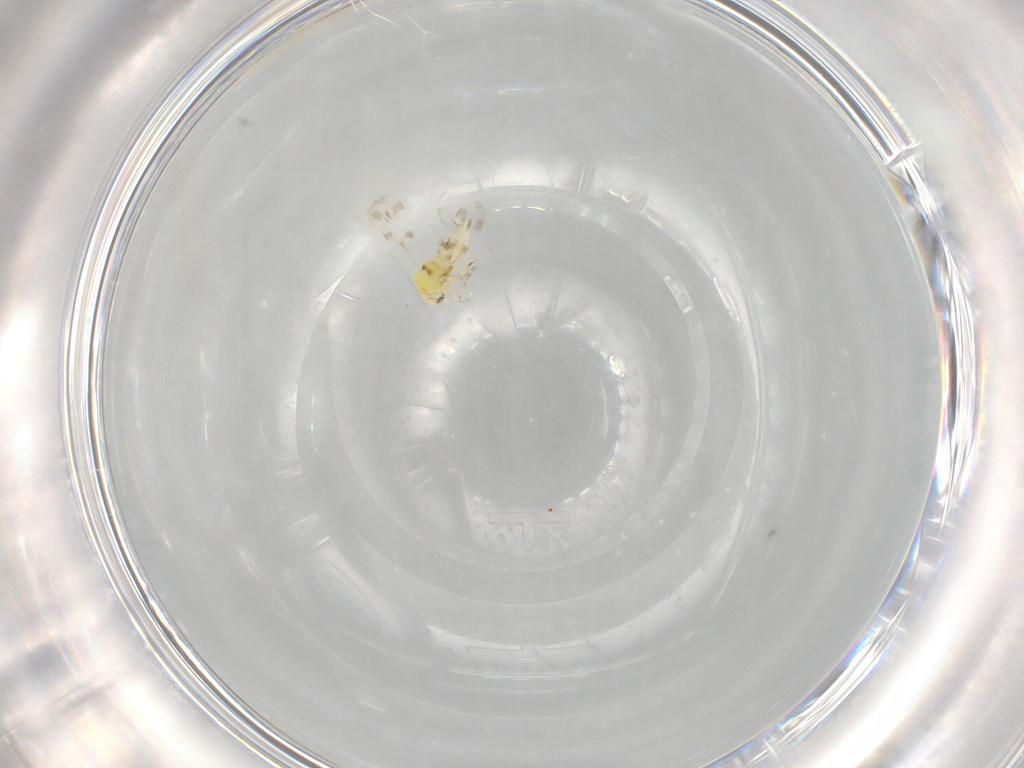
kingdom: Animalia
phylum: Arthropoda
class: Insecta
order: Hemiptera
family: Aleyrodidae
